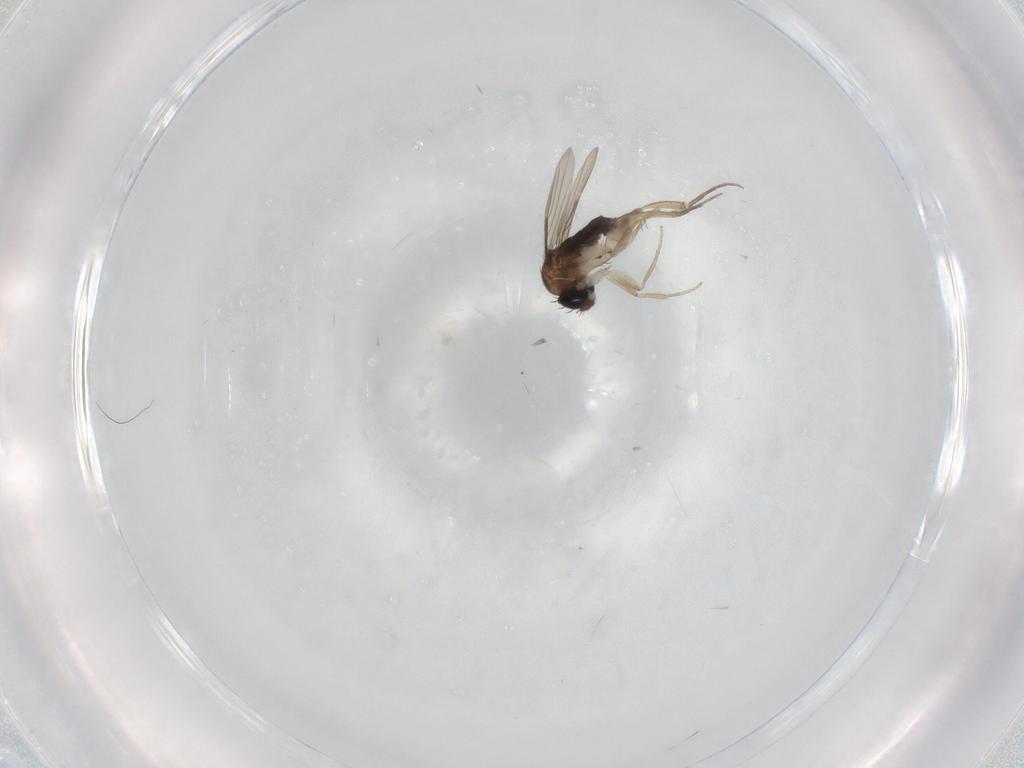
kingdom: Animalia
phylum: Arthropoda
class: Insecta
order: Diptera
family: Phoridae
